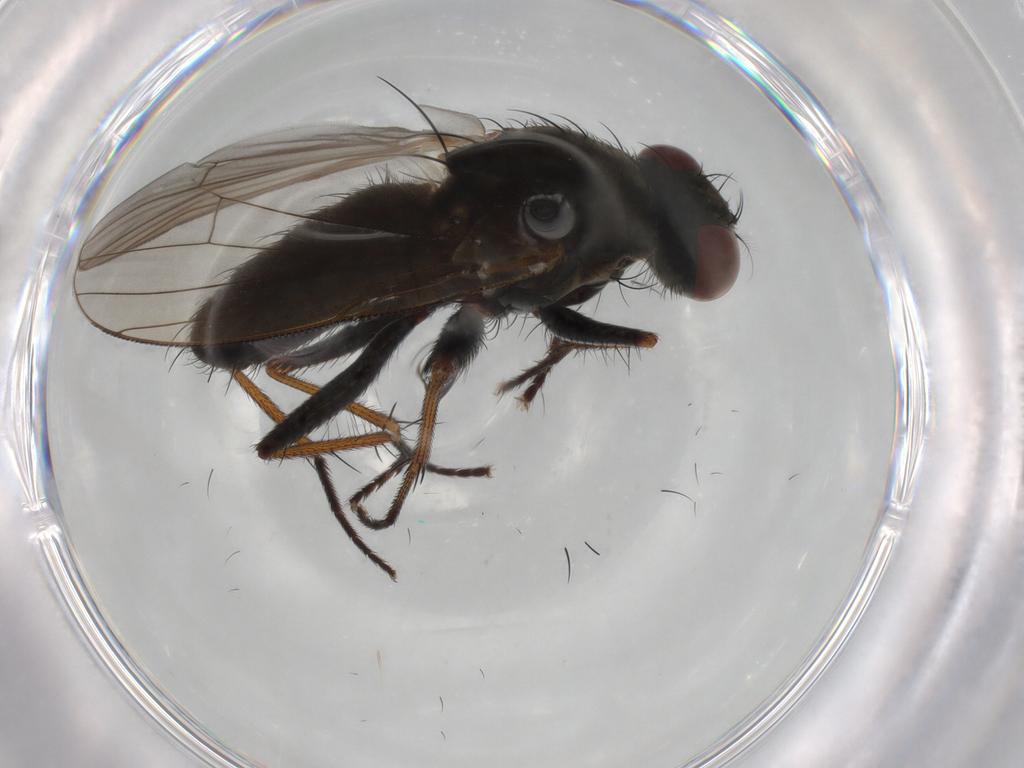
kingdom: Animalia
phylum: Arthropoda
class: Insecta
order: Diptera
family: Muscidae
